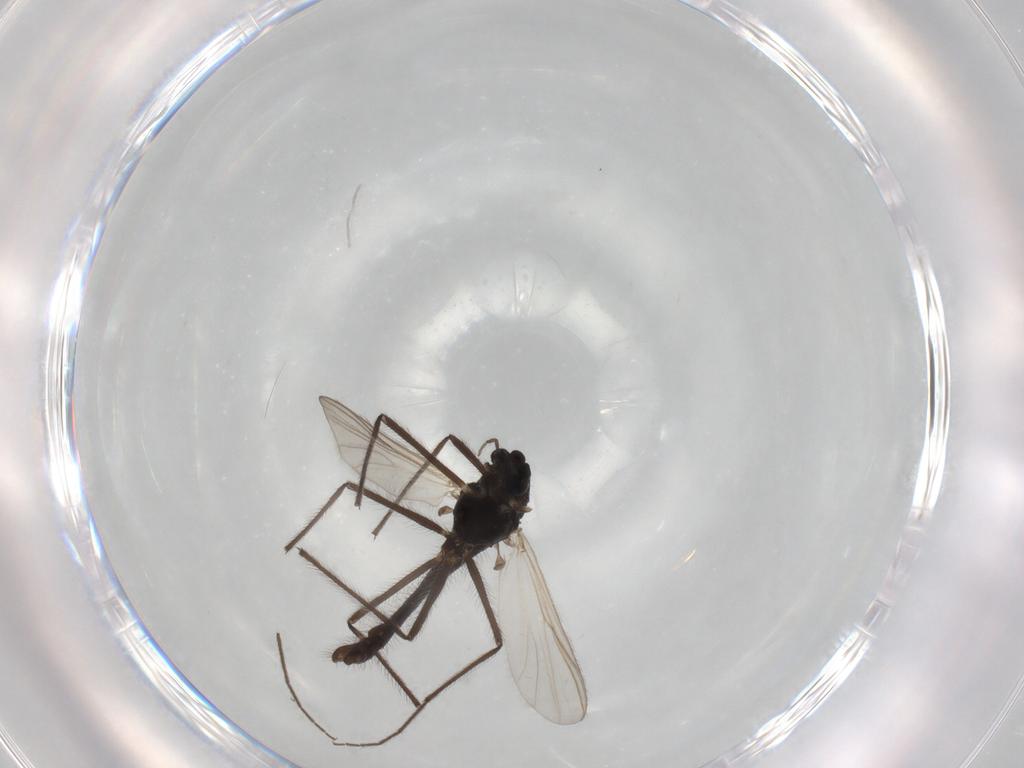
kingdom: Animalia
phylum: Arthropoda
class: Insecta
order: Diptera
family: Chironomidae
